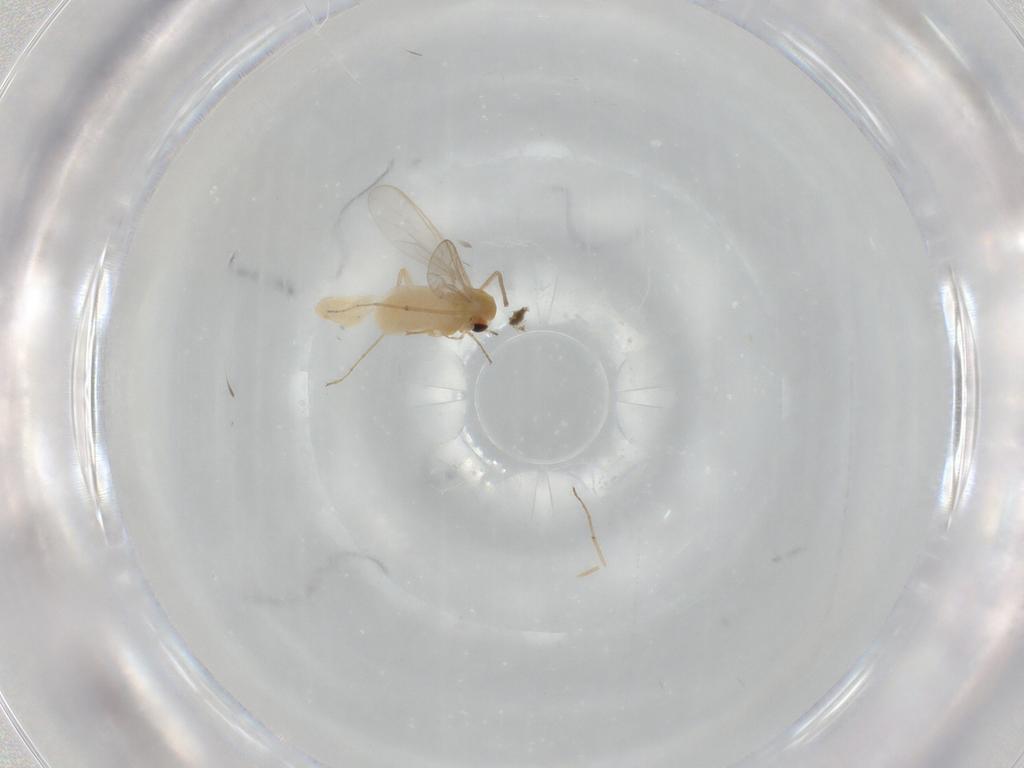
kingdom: Animalia
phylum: Arthropoda
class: Insecta
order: Diptera
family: Chironomidae
